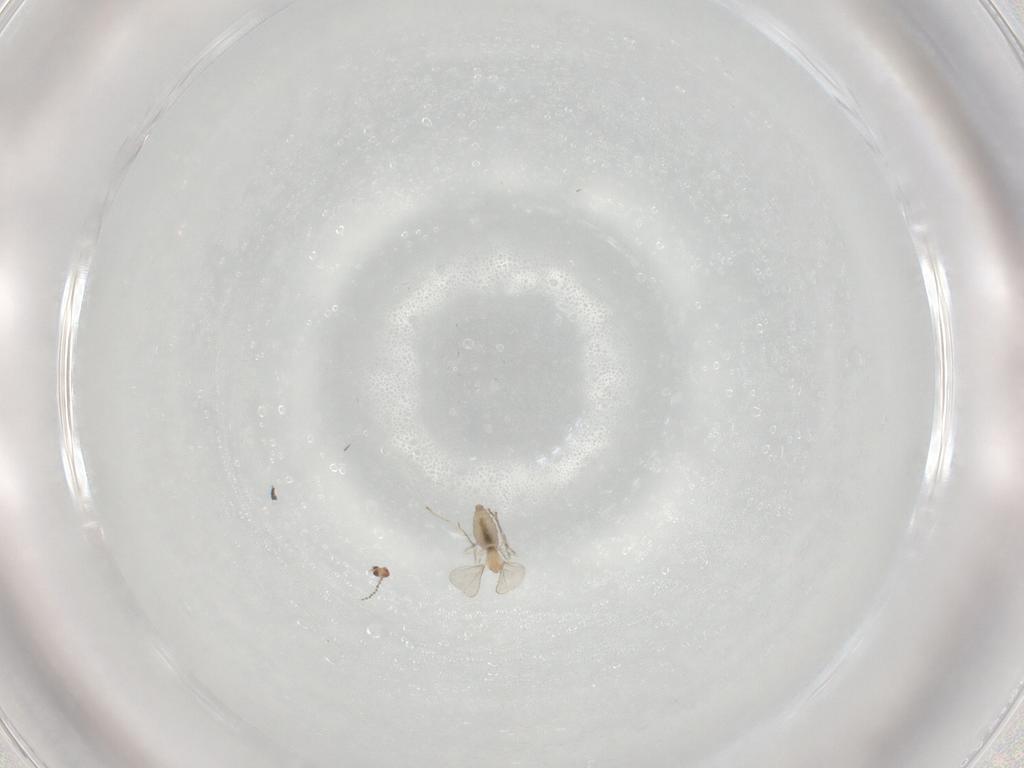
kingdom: Animalia
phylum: Arthropoda
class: Insecta
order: Diptera
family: Cecidomyiidae
